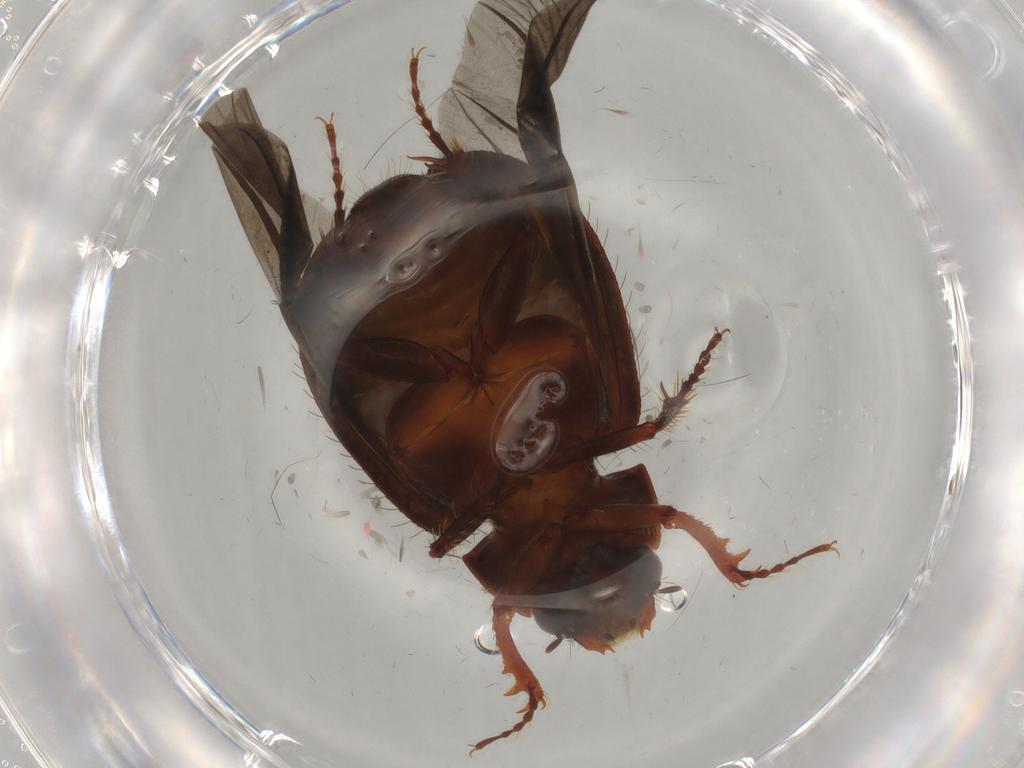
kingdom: Animalia
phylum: Arthropoda
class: Insecta
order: Coleoptera
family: Hybosoridae
